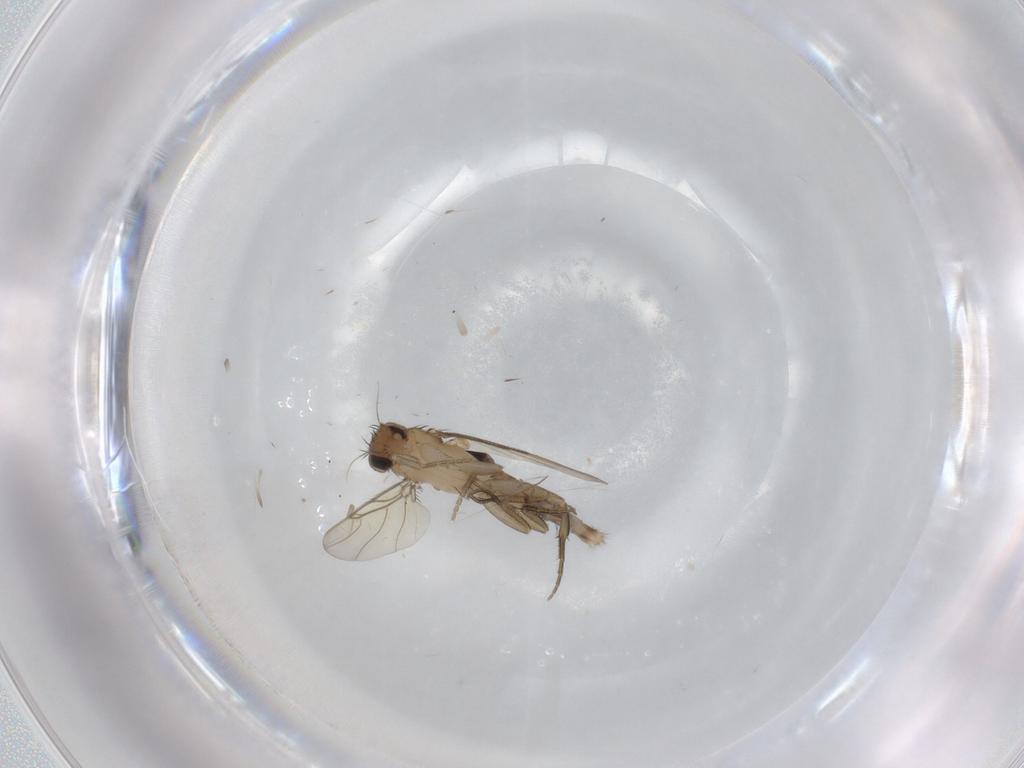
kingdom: Animalia
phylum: Arthropoda
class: Insecta
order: Diptera
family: Phoridae
